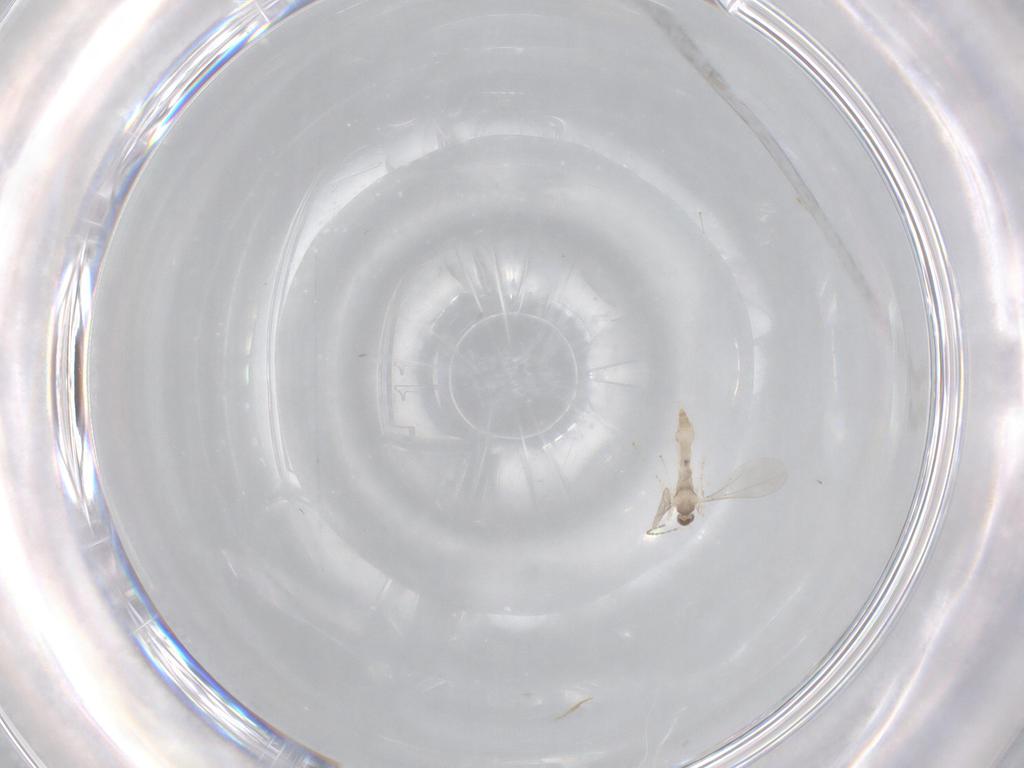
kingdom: Animalia
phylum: Arthropoda
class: Insecta
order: Diptera
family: Cecidomyiidae
